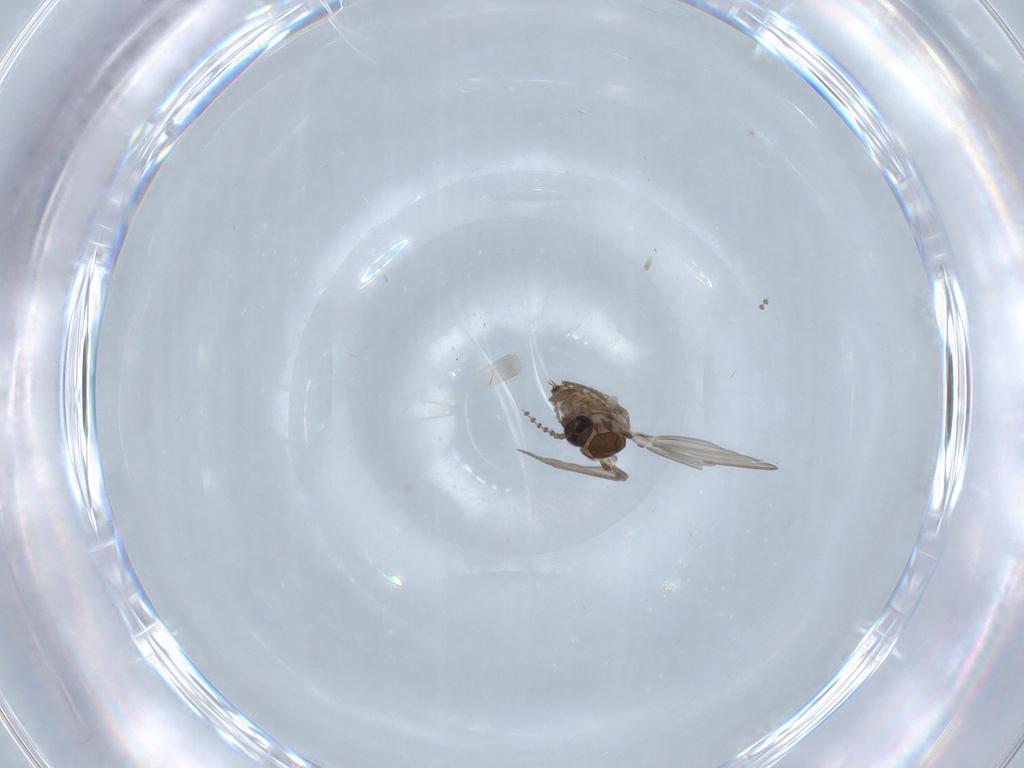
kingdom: Animalia
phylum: Arthropoda
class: Insecta
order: Diptera
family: Psychodidae
